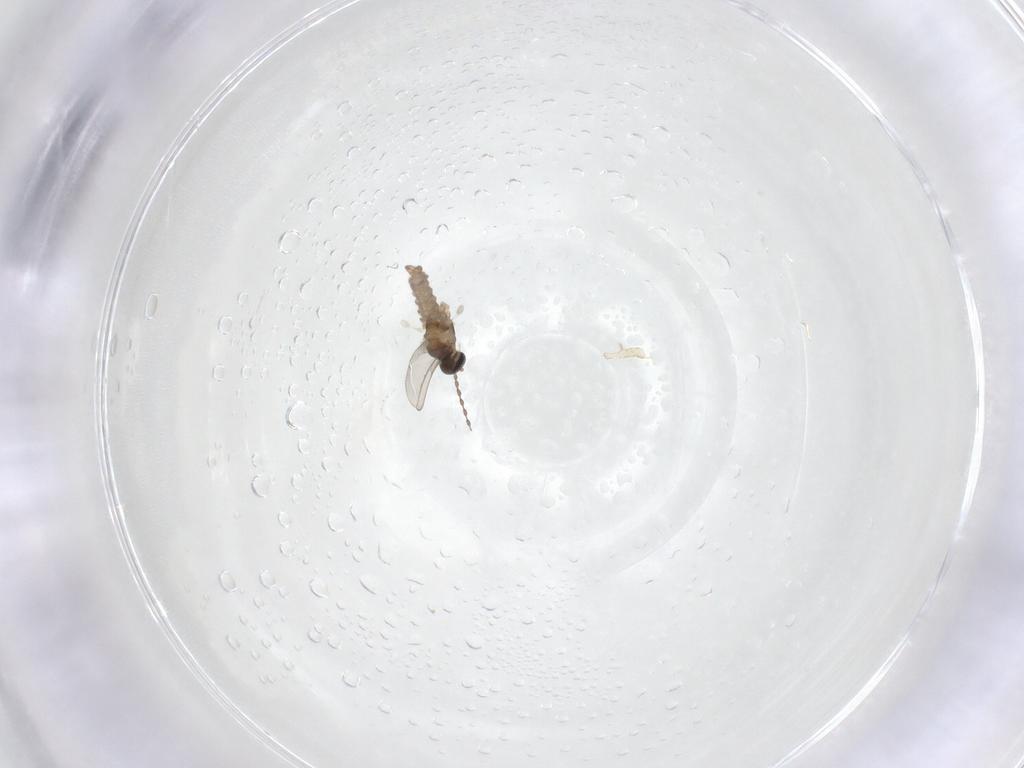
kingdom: Animalia
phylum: Arthropoda
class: Insecta
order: Diptera
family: Cecidomyiidae
